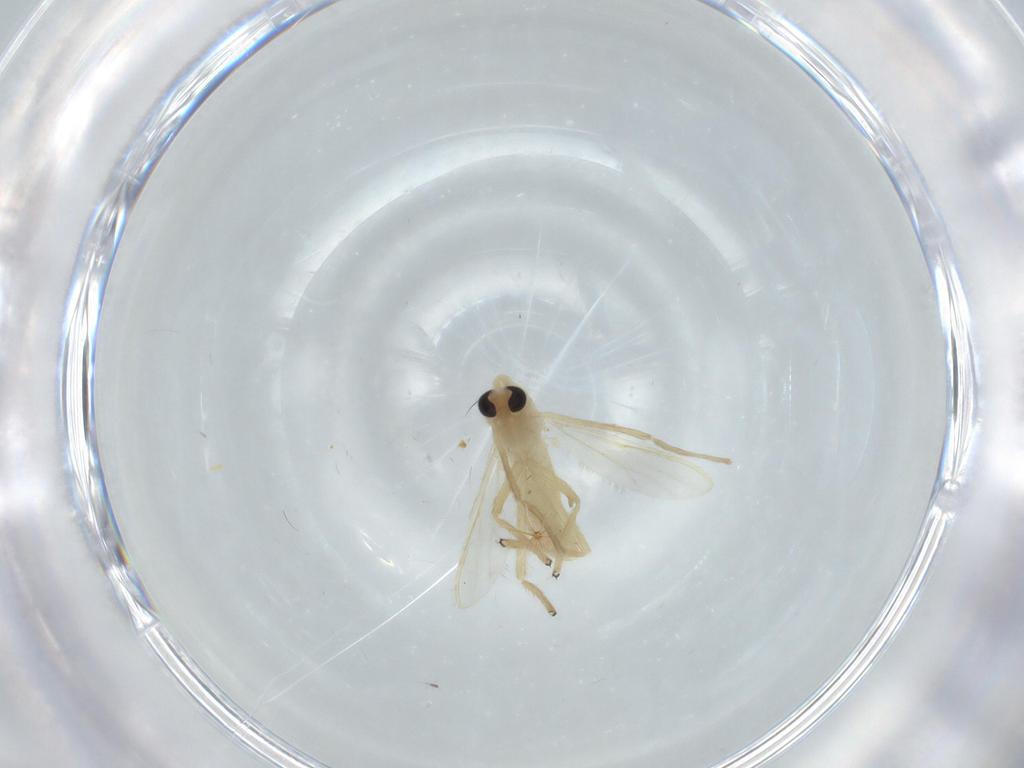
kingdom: Animalia
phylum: Arthropoda
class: Insecta
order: Diptera
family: Chironomidae
